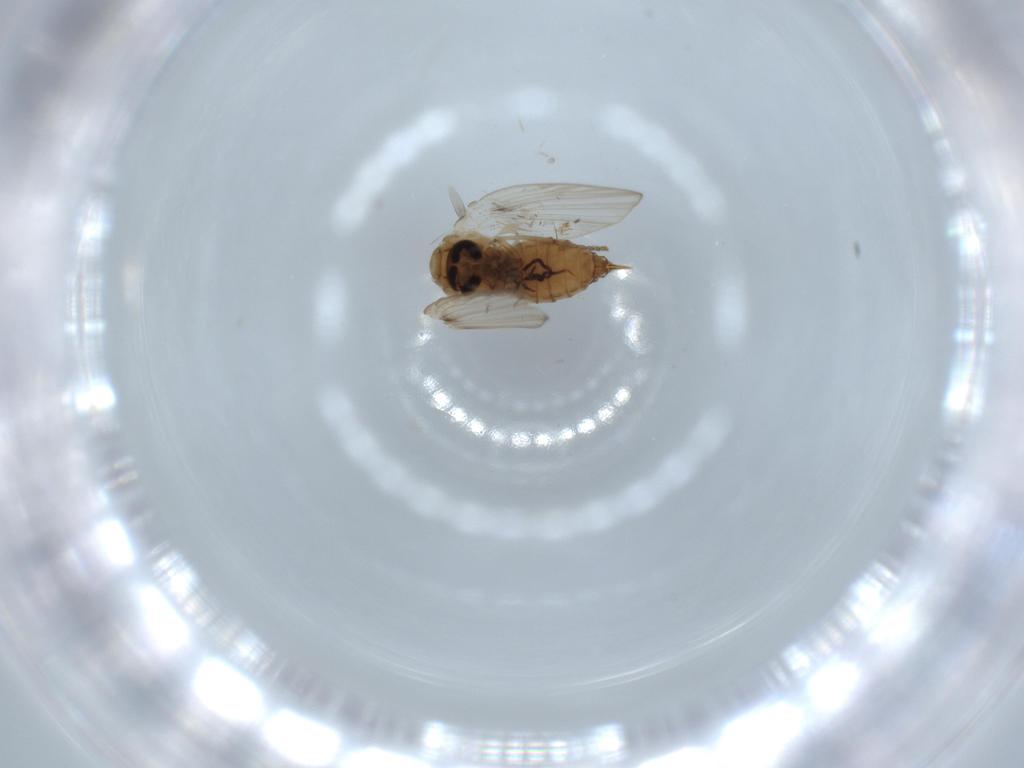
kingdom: Animalia
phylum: Arthropoda
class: Insecta
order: Diptera
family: Psychodidae
